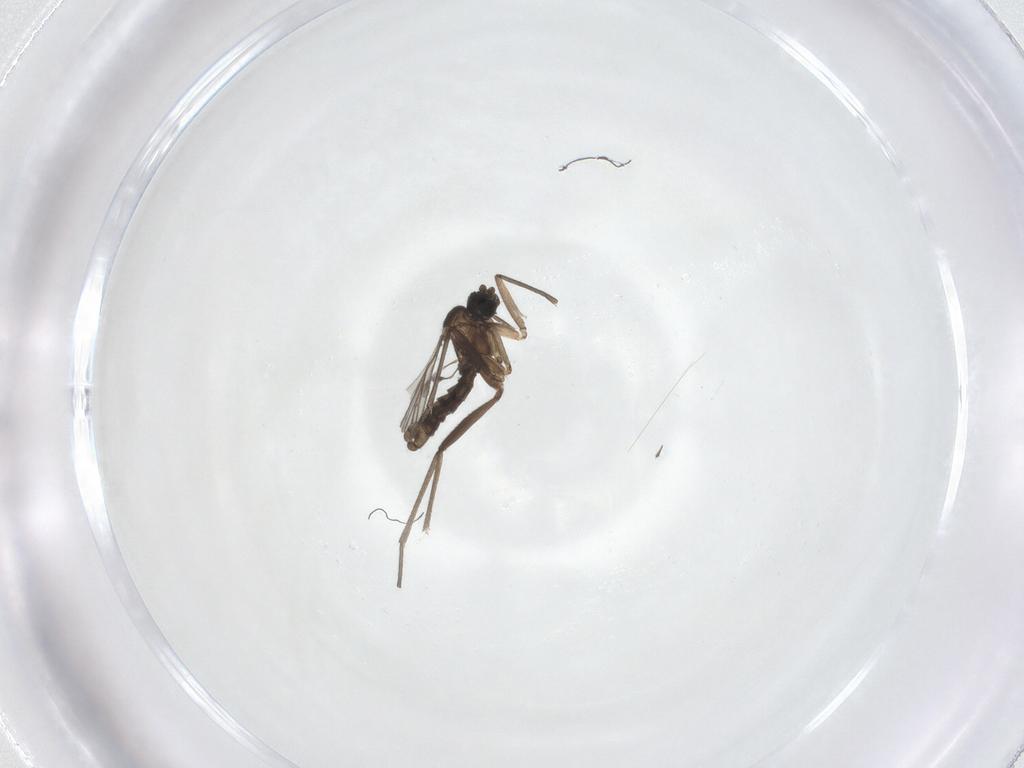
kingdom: Animalia
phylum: Arthropoda
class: Insecta
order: Diptera
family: Sciaridae
